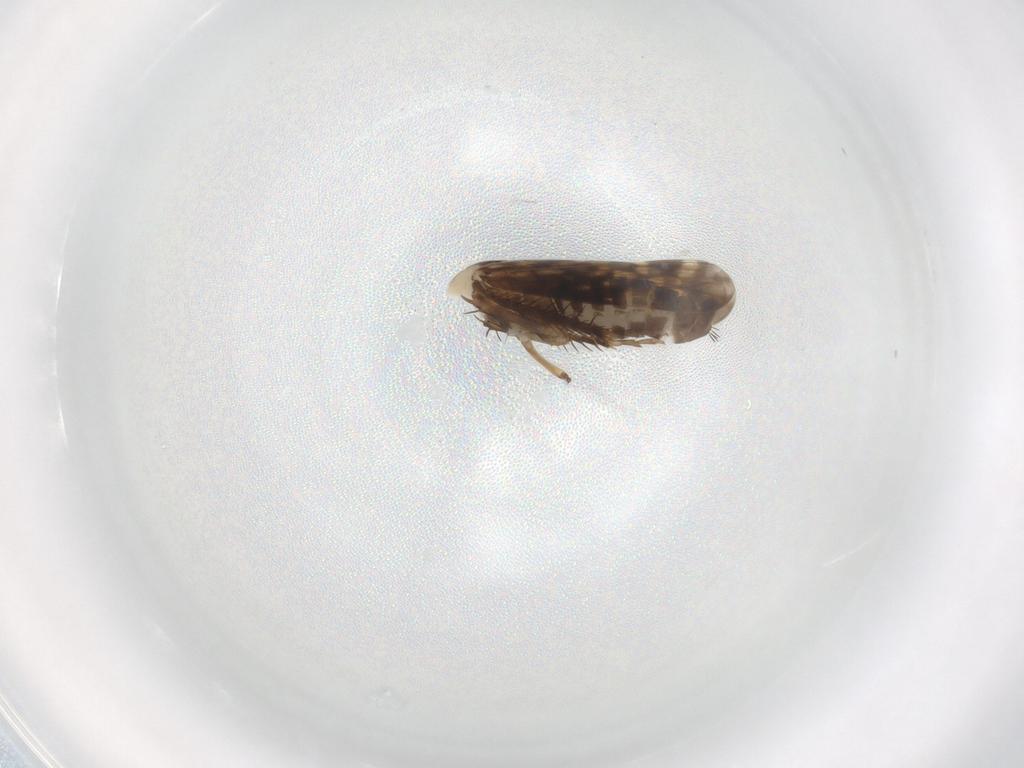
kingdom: Animalia
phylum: Arthropoda
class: Insecta
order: Hemiptera
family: Cicadellidae
